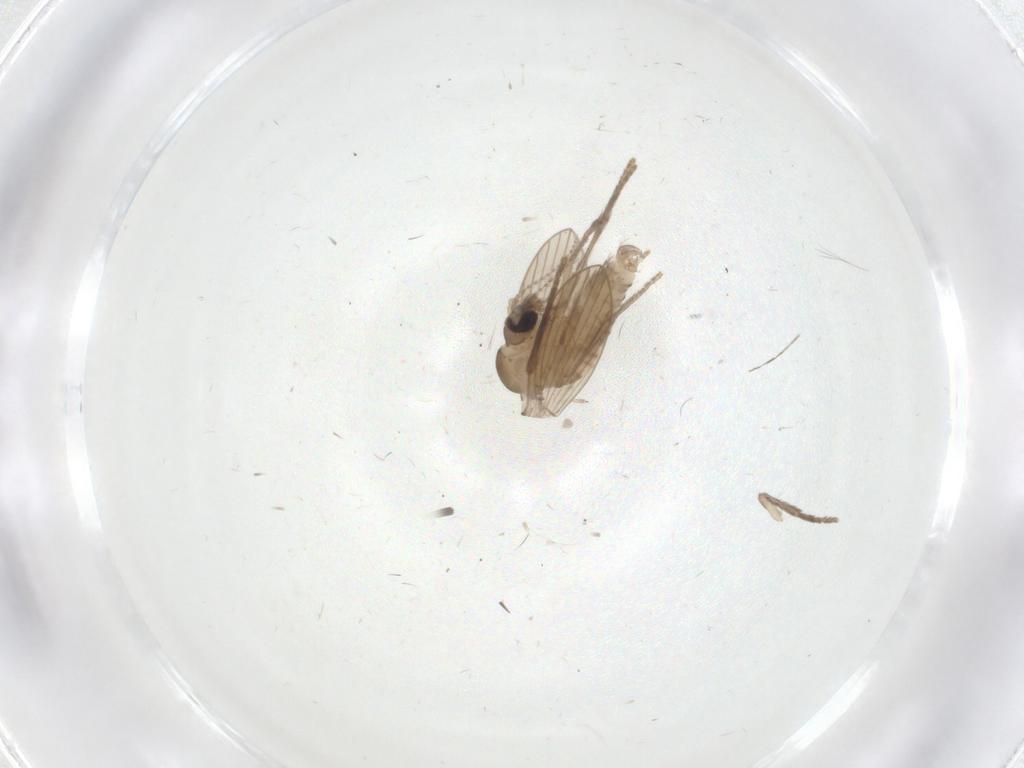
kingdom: Animalia
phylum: Arthropoda
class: Insecta
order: Diptera
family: Psychodidae
